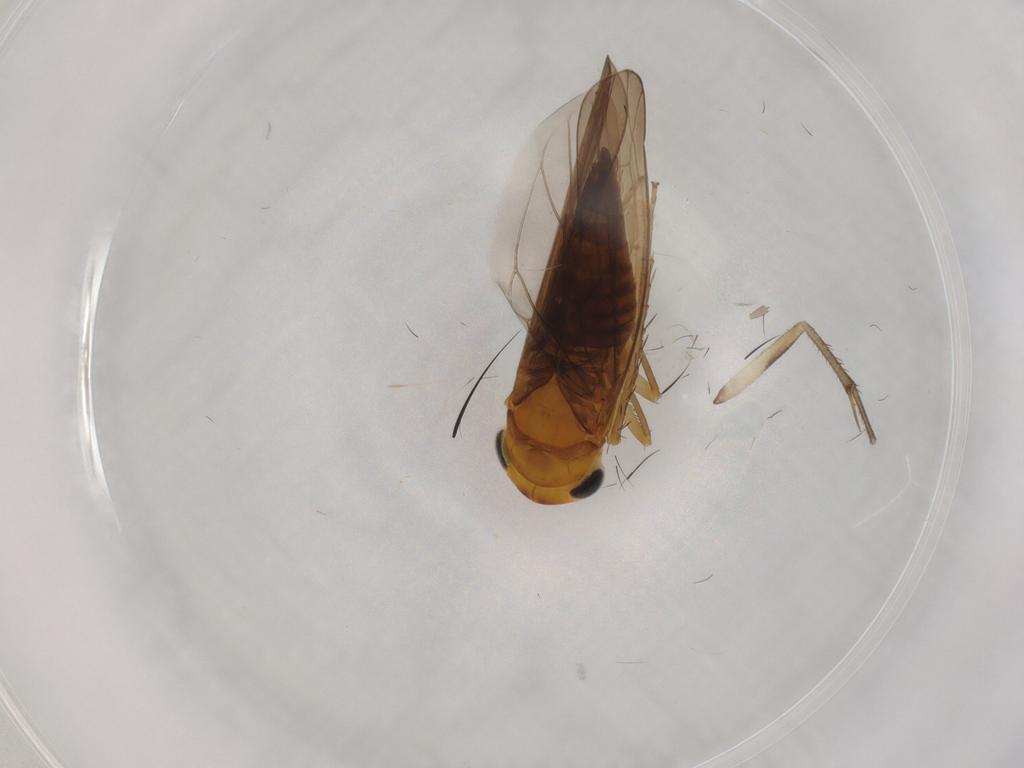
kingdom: Animalia
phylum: Arthropoda
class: Insecta
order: Hemiptera
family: Cicadellidae
